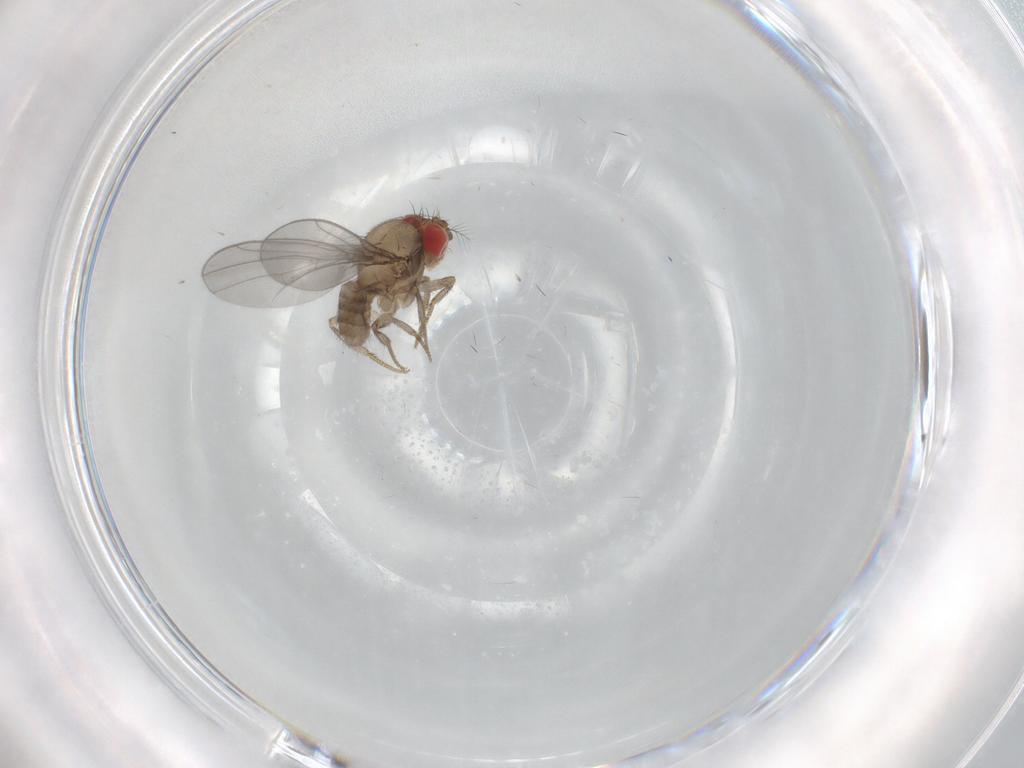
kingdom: Animalia
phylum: Arthropoda
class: Insecta
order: Diptera
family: Drosophilidae
